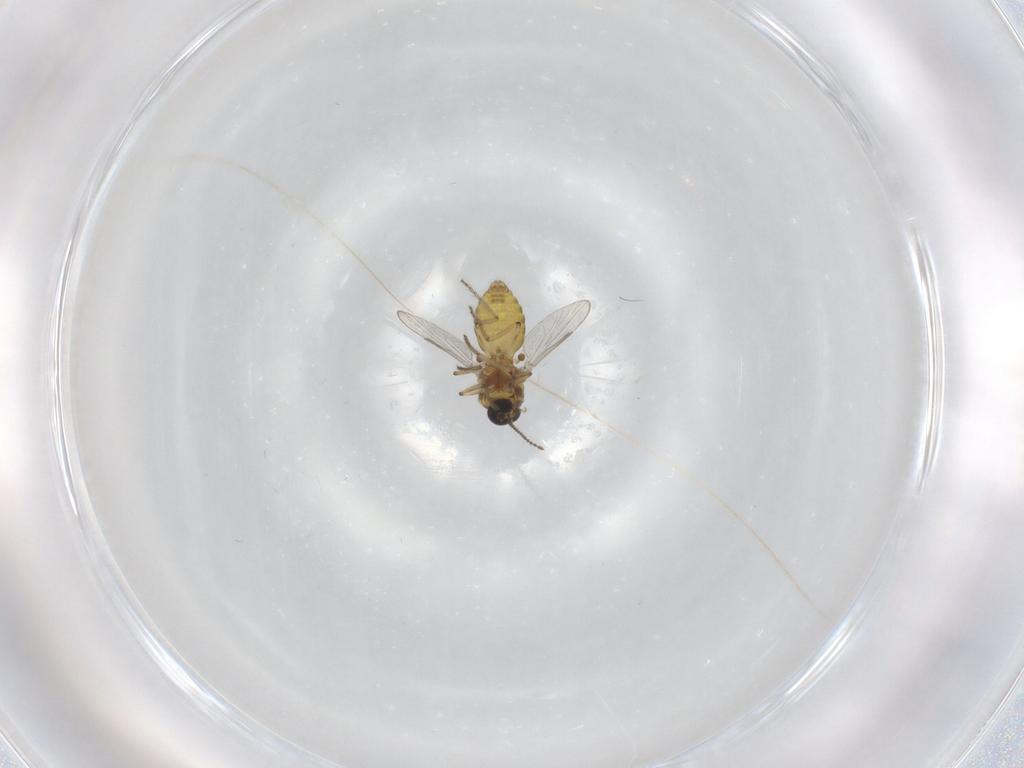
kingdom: Animalia
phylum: Arthropoda
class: Insecta
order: Diptera
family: Ceratopogonidae
